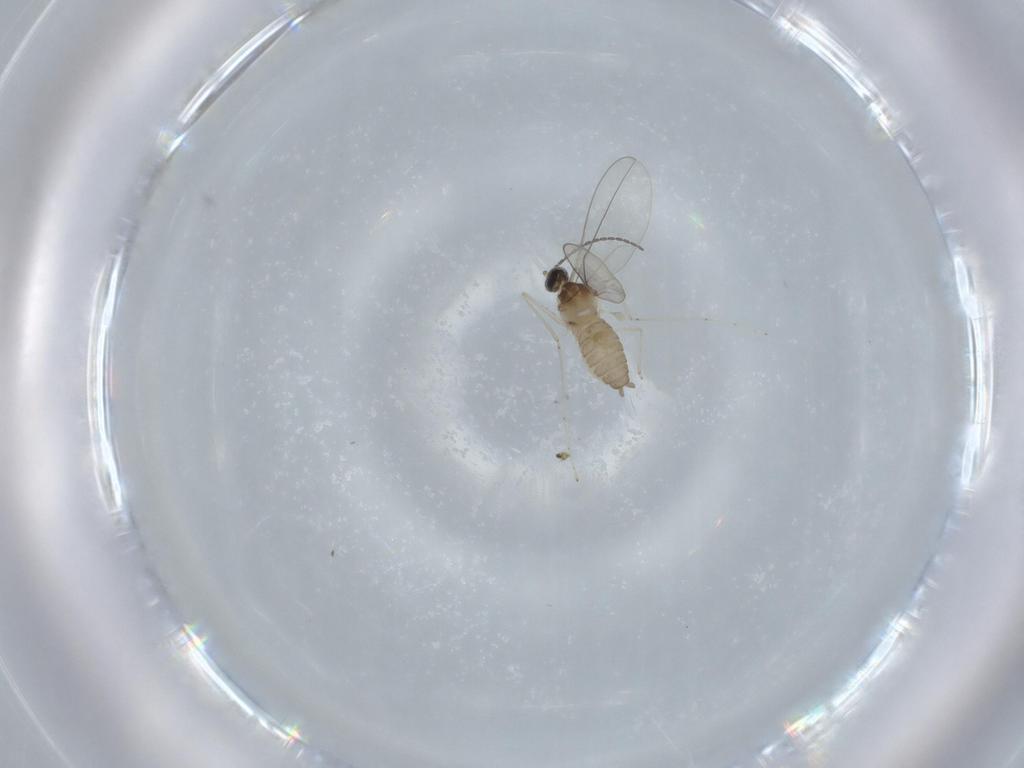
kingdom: Animalia
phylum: Arthropoda
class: Insecta
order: Diptera
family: Cecidomyiidae
